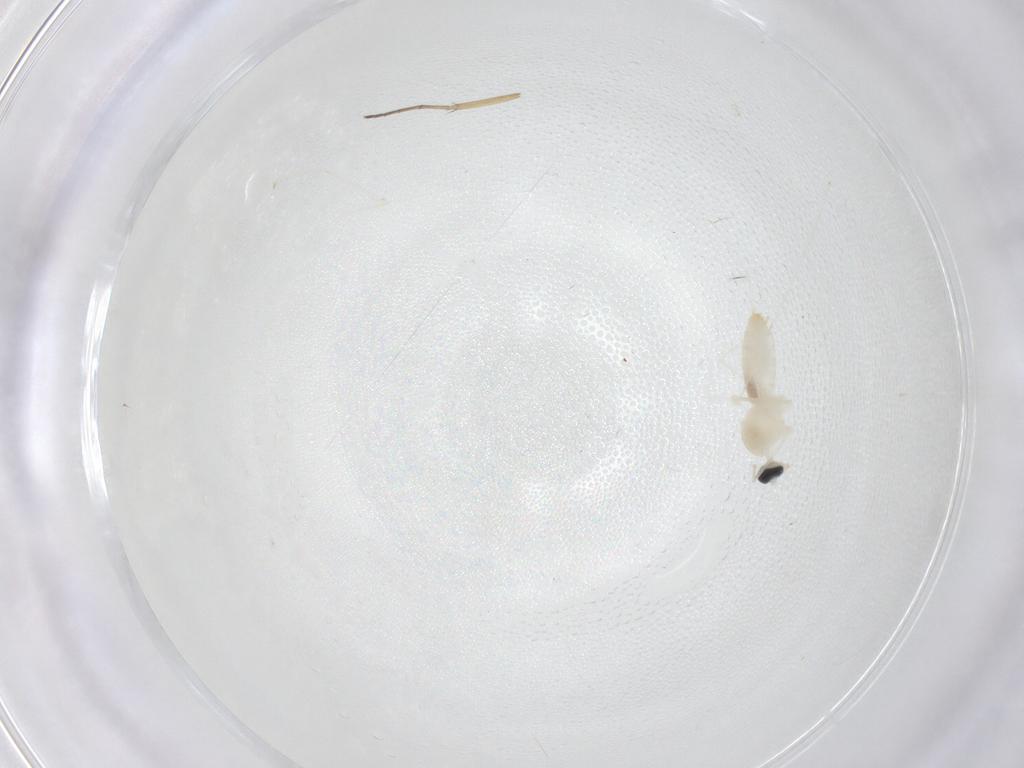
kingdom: Animalia
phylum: Arthropoda
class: Insecta
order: Diptera
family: Cecidomyiidae
